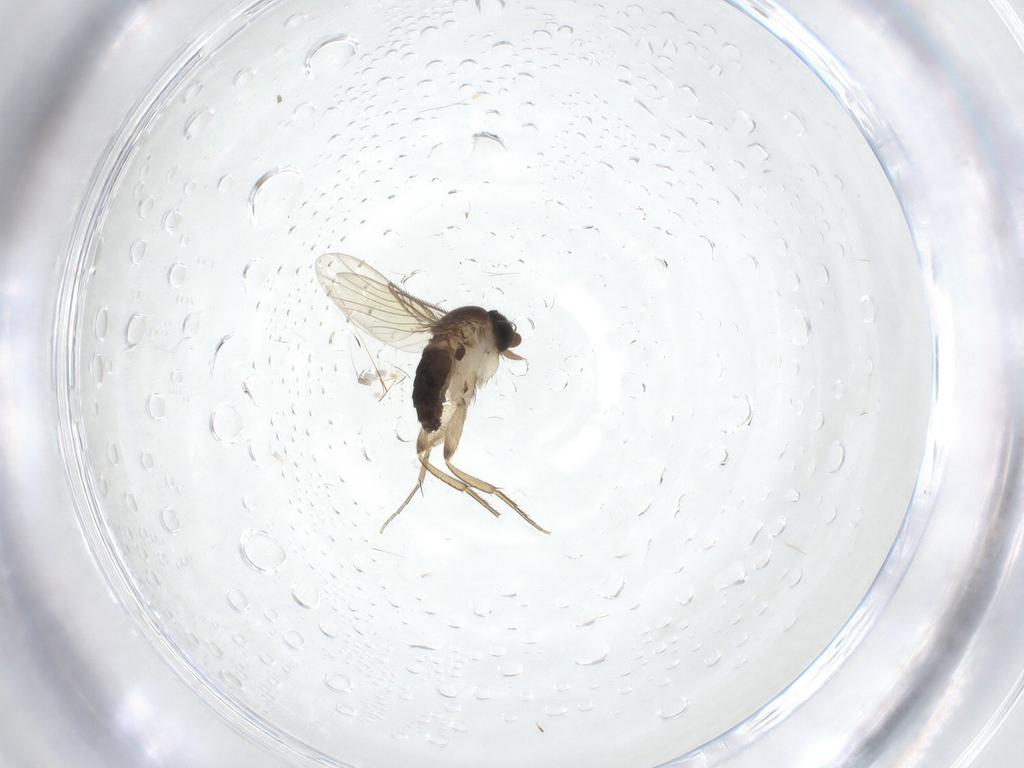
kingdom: Animalia
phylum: Arthropoda
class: Insecta
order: Diptera
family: Phoridae
